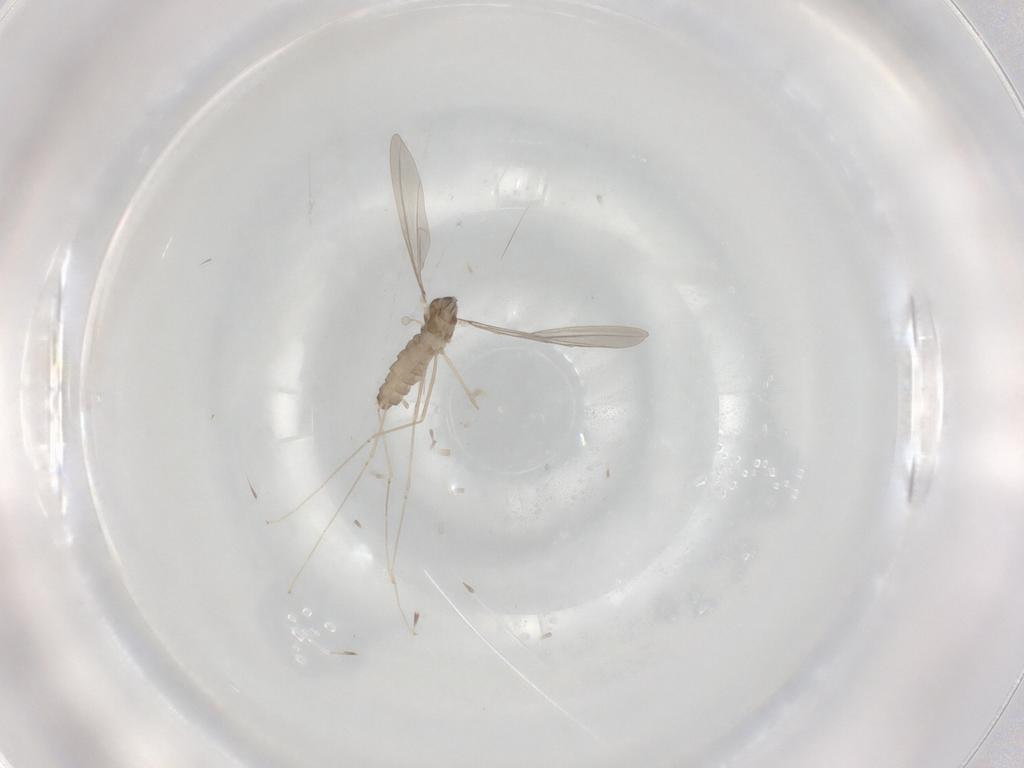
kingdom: Animalia
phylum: Arthropoda
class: Insecta
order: Diptera
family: Cecidomyiidae
